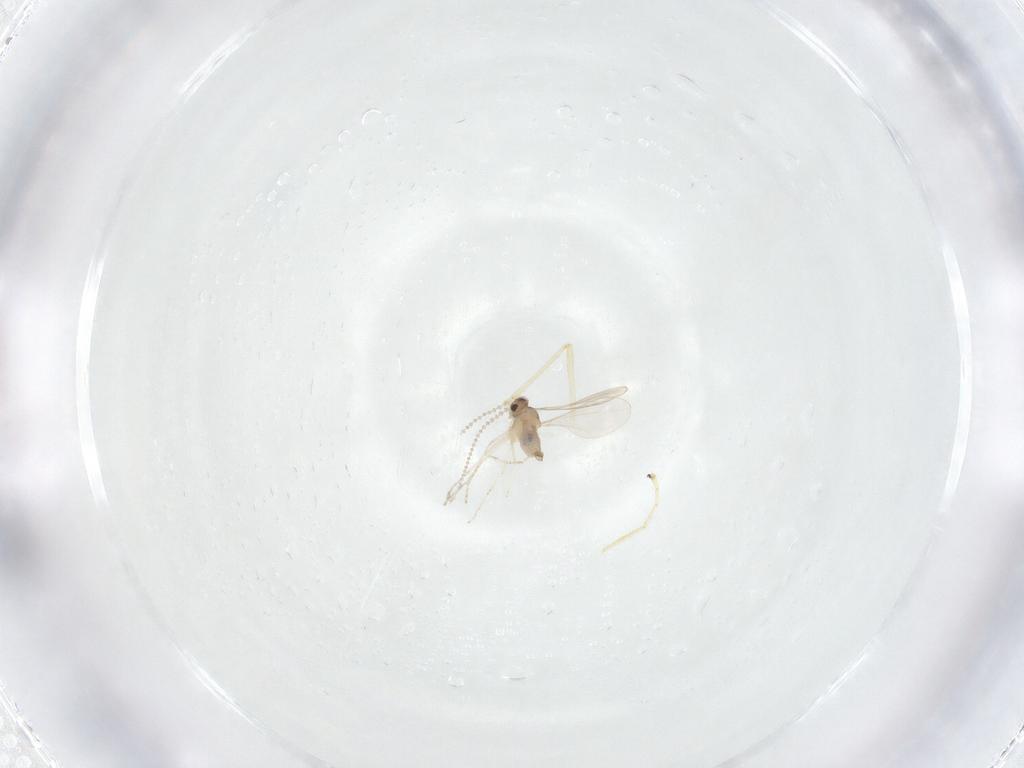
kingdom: Animalia
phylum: Arthropoda
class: Insecta
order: Diptera
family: Cecidomyiidae
